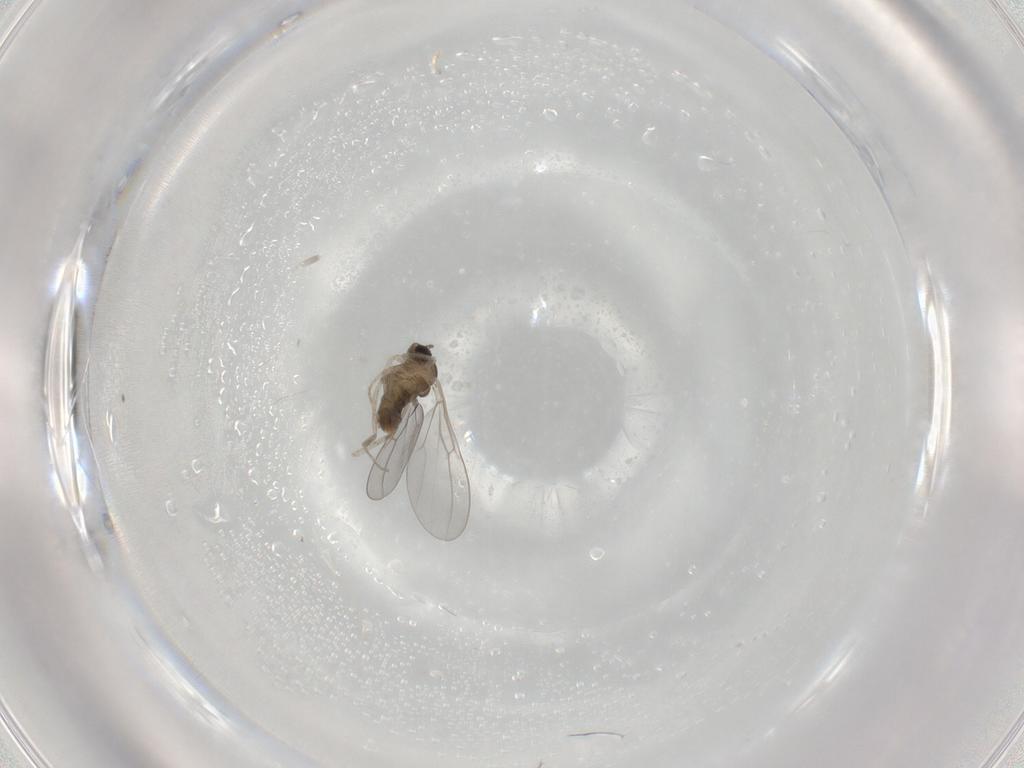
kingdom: Animalia
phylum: Arthropoda
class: Insecta
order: Diptera
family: Cecidomyiidae
